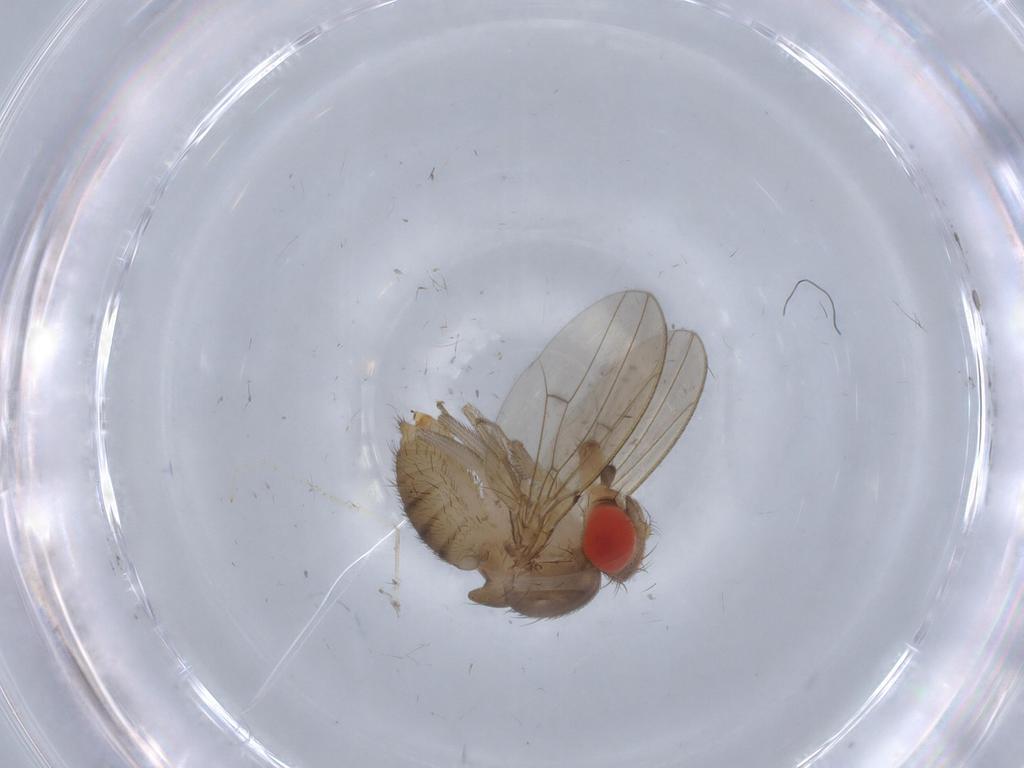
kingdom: Animalia
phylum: Arthropoda
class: Insecta
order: Diptera
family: Drosophilidae
